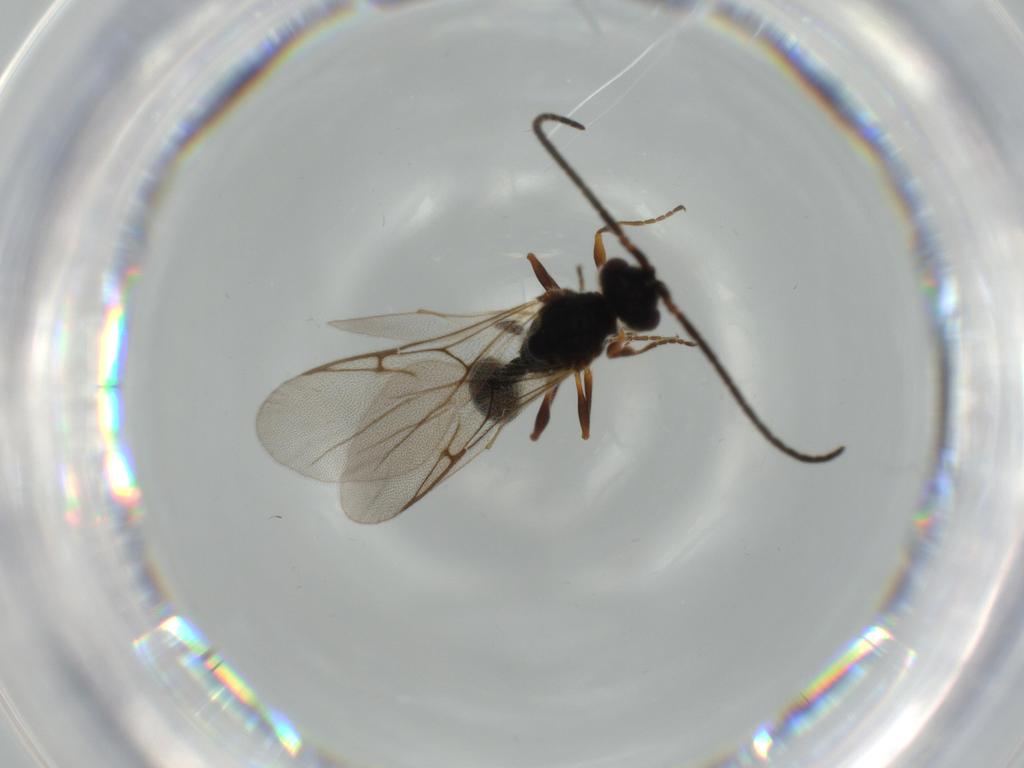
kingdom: Animalia
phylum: Arthropoda
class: Insecta
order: Hymenoptera
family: Diapriidae
